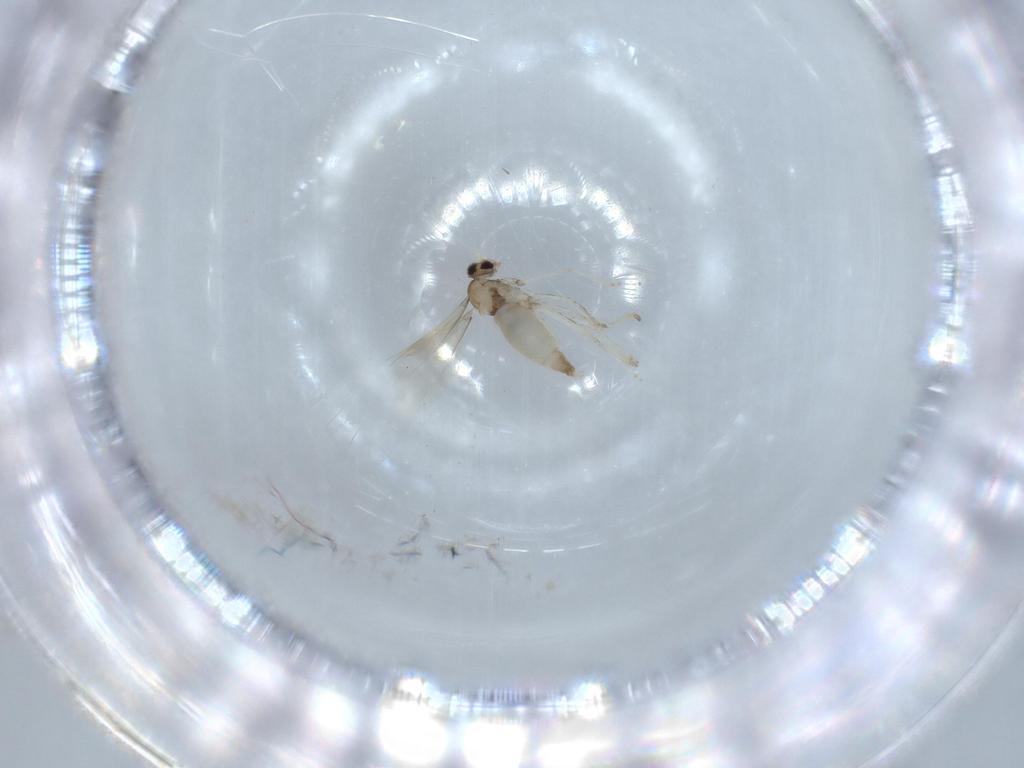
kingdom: Animalia
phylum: Arthropoda
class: Insecta
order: Diptera
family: Cecidomyiidae
